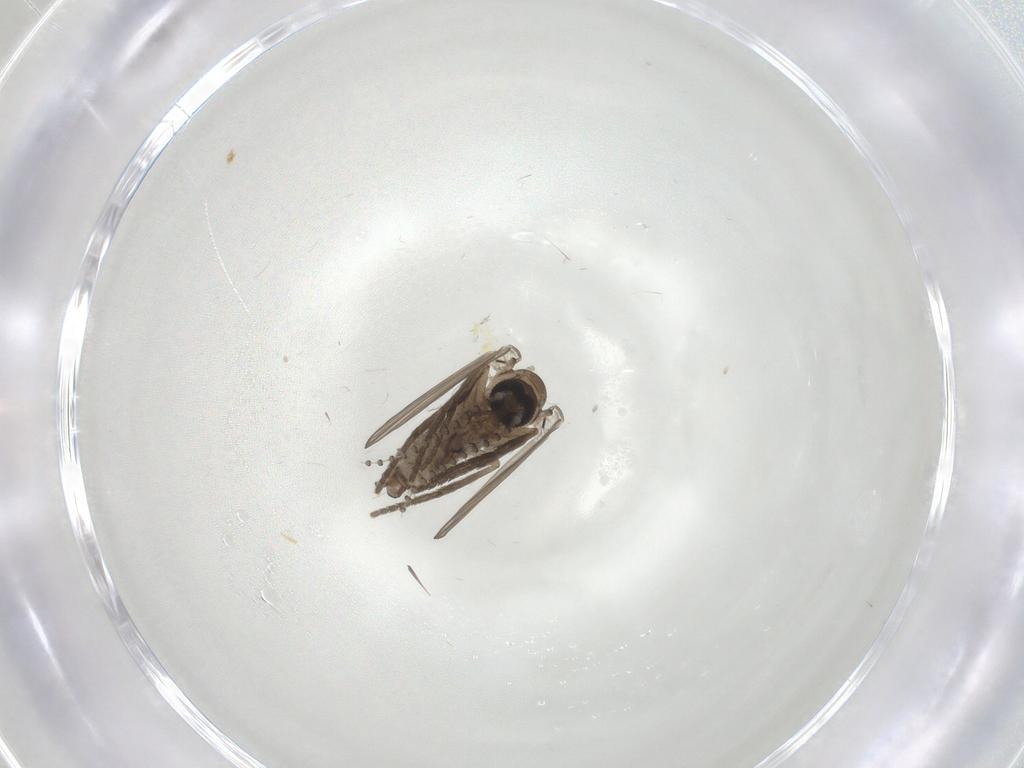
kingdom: Animalia
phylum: Arthropoda
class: Insecta
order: Diptera
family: Psychodidae
